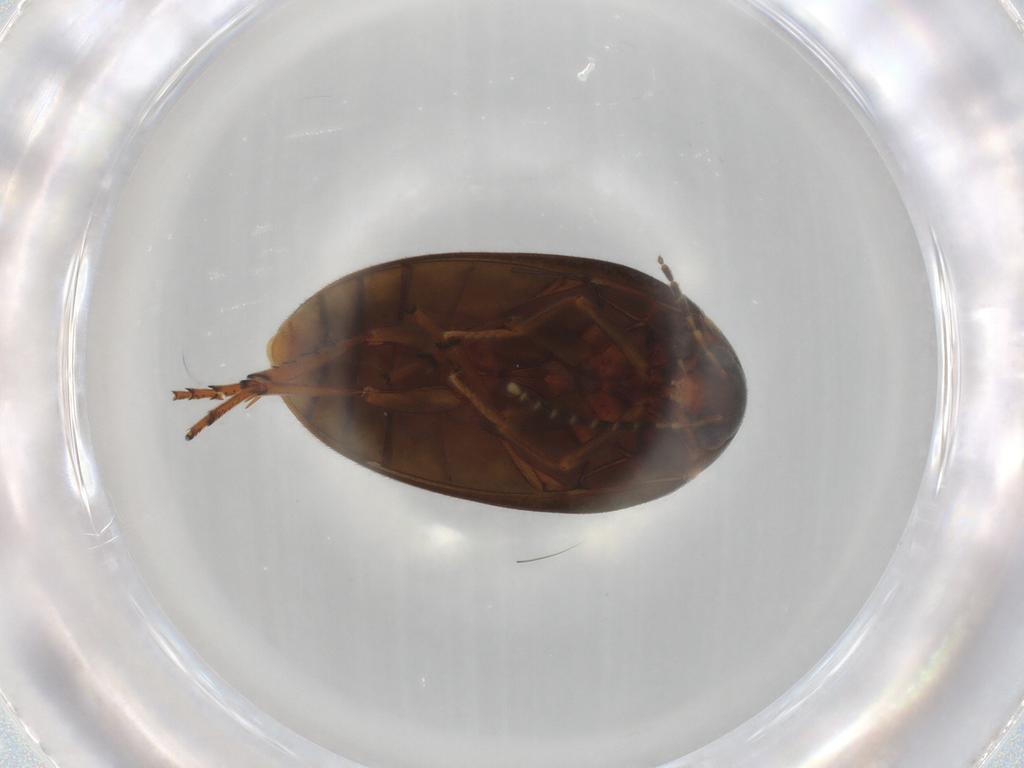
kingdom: Animalia
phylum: Arthropoda
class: Insecta
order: Coleoptera
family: Eucinetidae
